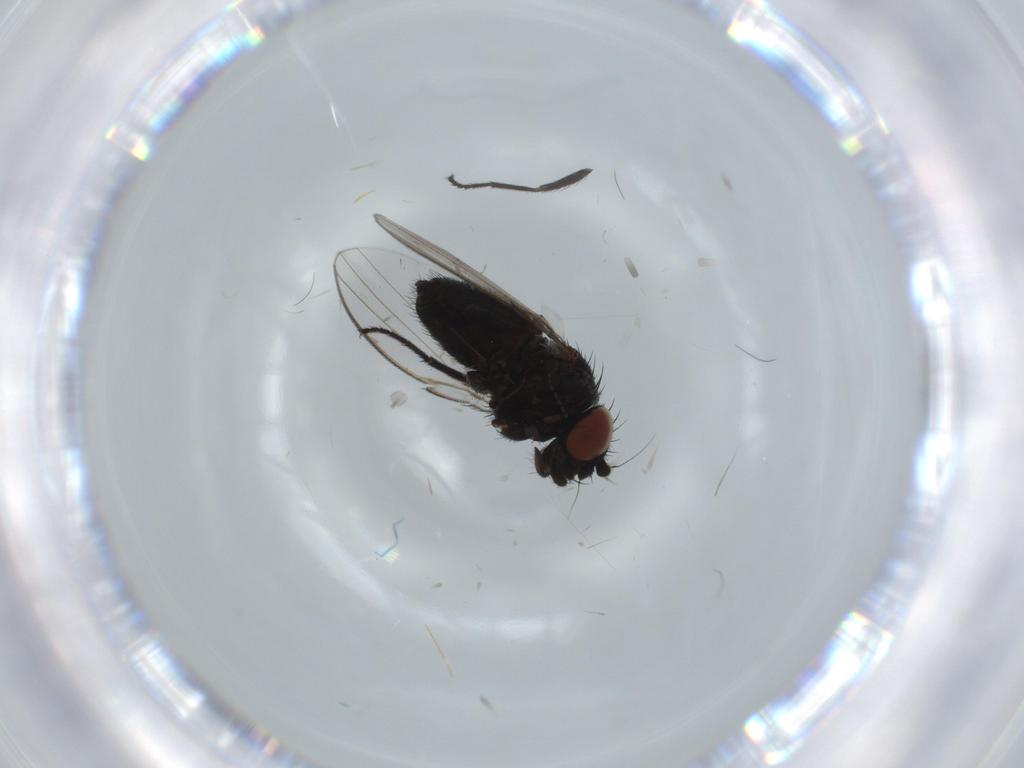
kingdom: Animalia
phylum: Arthropoda
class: Insecta
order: Diptera
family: Milichiidae
